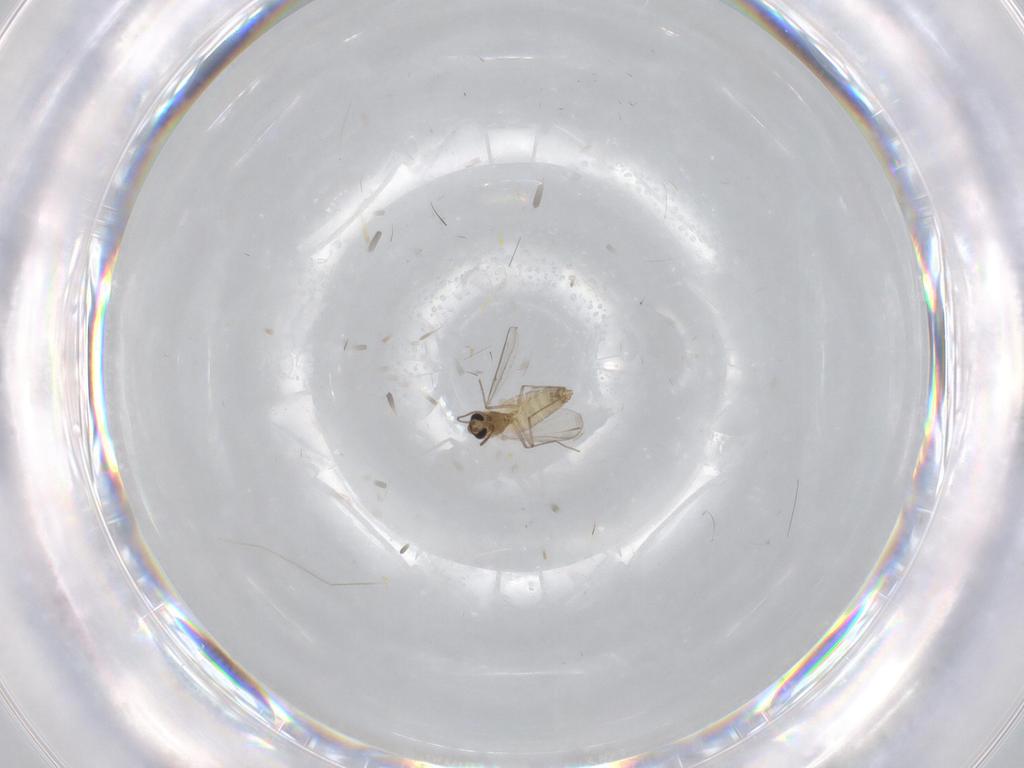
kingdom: Animalia
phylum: Arthropoda
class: Insecta
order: Diptera
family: Chironomidae
